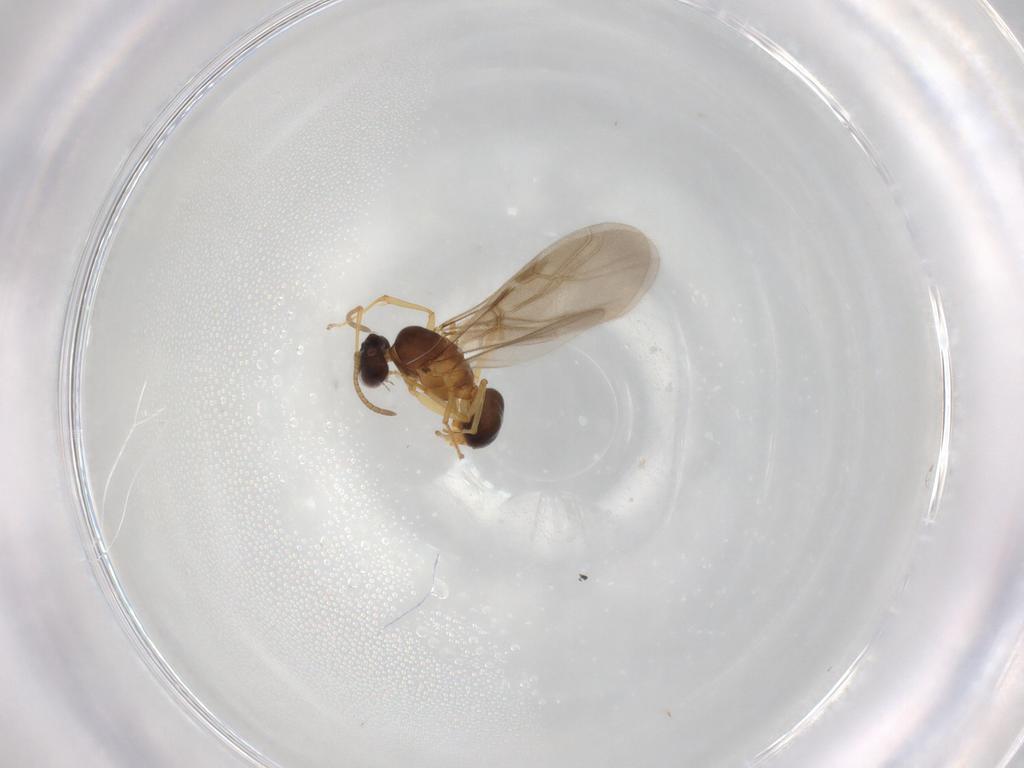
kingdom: Animalia
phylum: Arthropoda
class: Insecta
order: Hymenoptera
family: Formicidae
